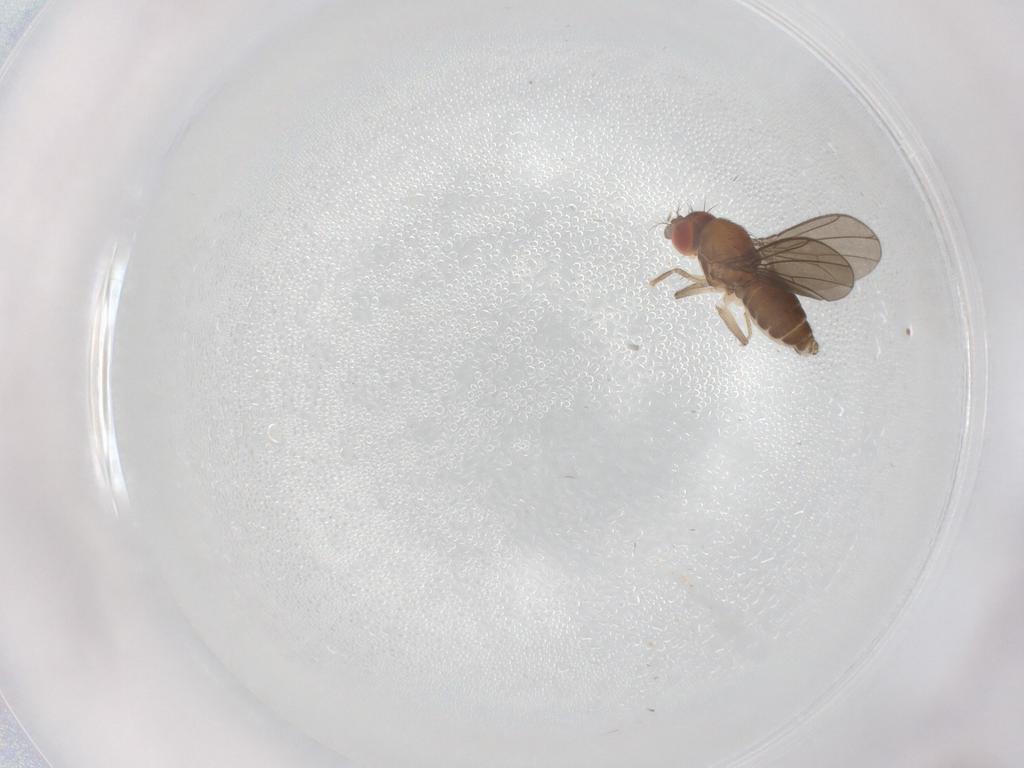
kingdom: Animalia
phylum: Arthropoda
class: Insecta
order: Diptera
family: Drosophilidae
